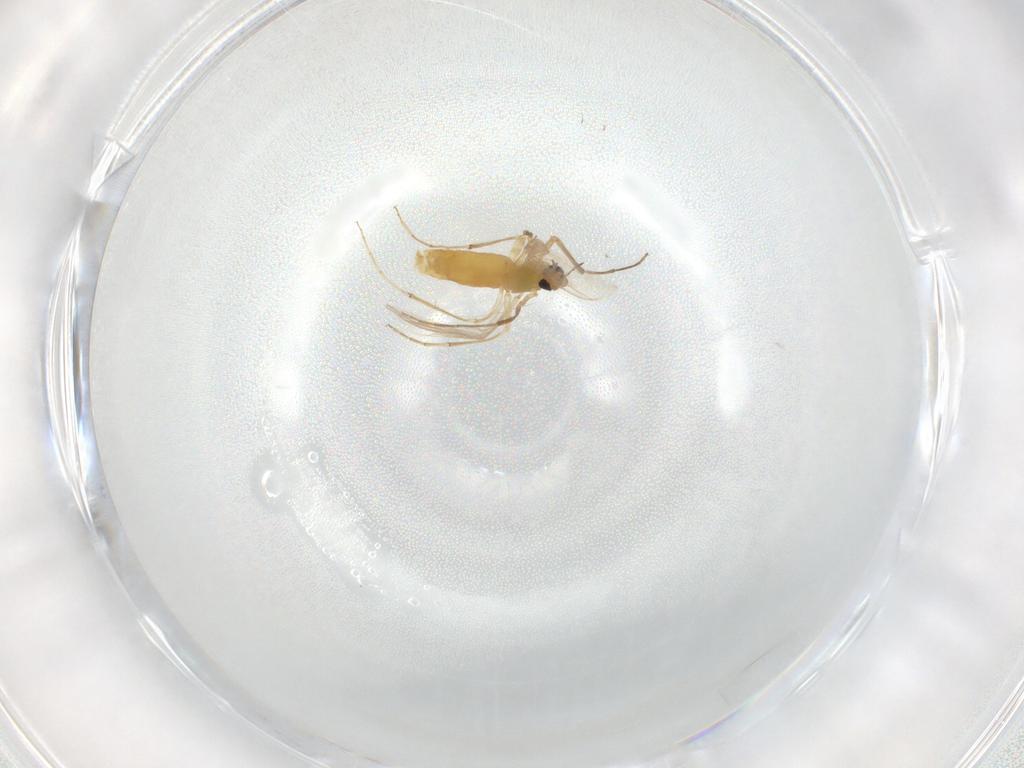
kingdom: Animalia
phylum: Arthropoda
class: Insecta
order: Diptera
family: Chironomidae
